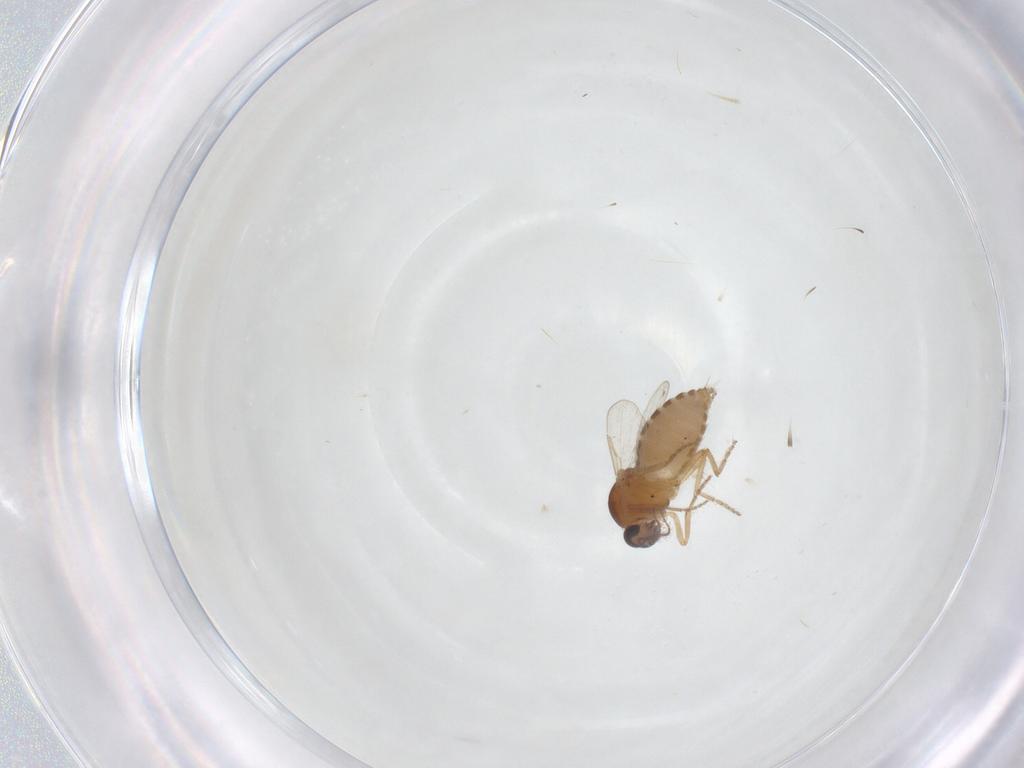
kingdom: Animalia
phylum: Arthropoda
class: Insecta
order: Diptera
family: Ceratopogonidae
